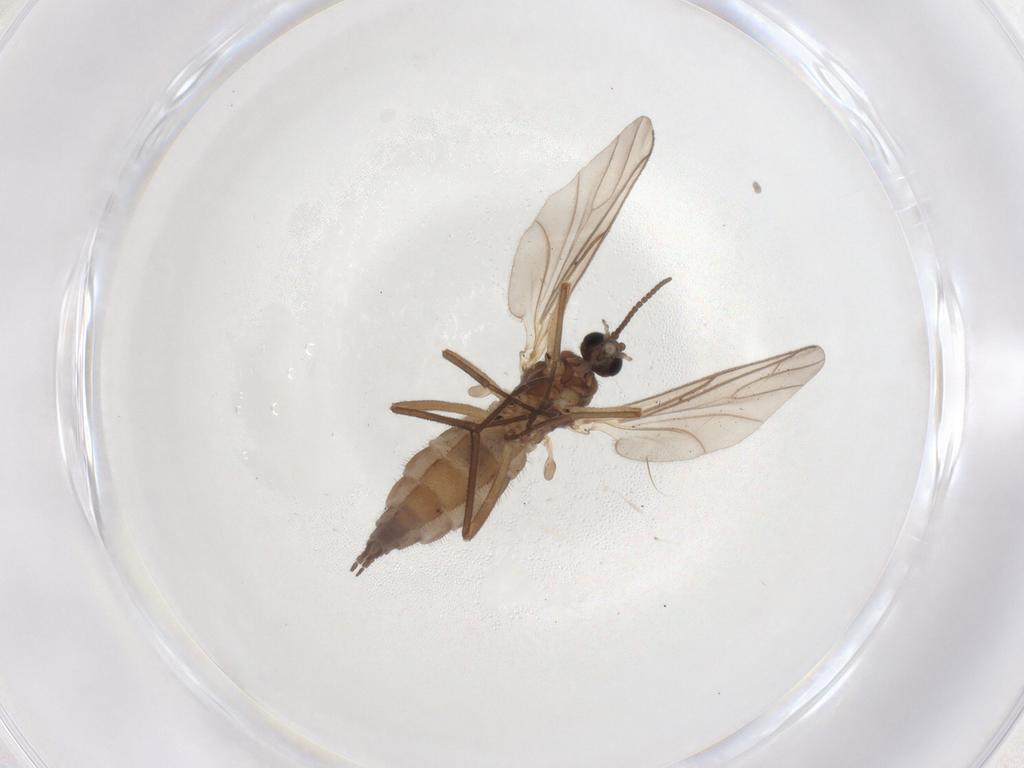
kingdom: Animalia
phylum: Arthropoda
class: Insecta
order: Diptera
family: Sciaridae
